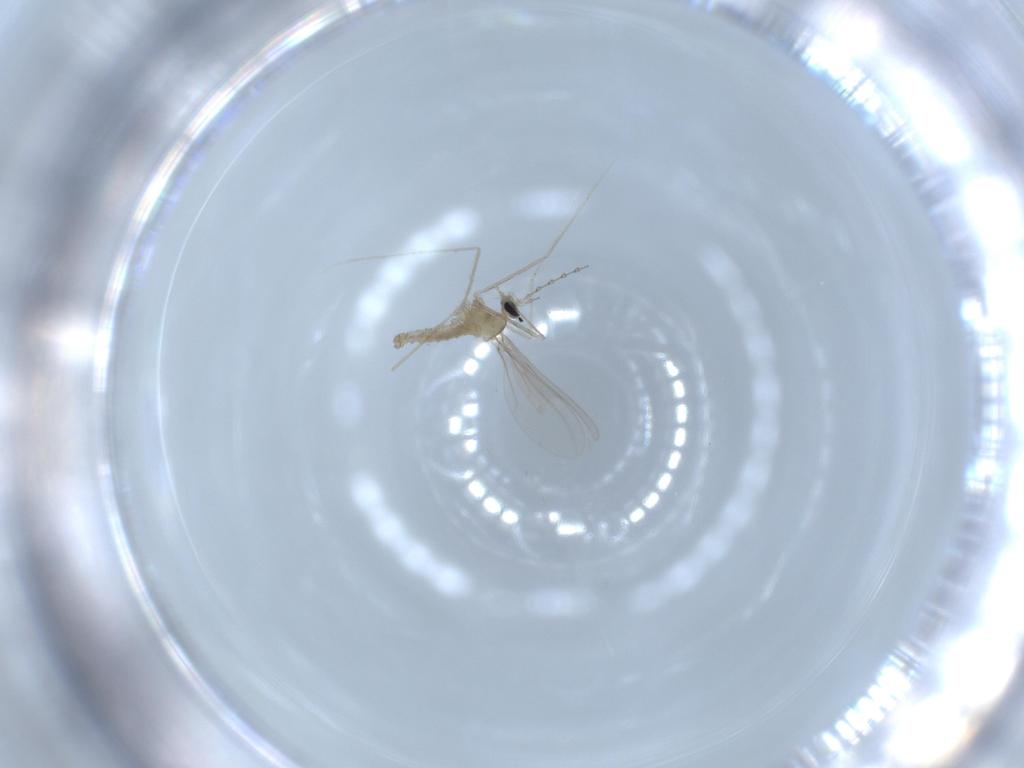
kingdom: Animalia
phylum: Arthropoda
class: Insecta
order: Diptera
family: Cecidomyiidae
